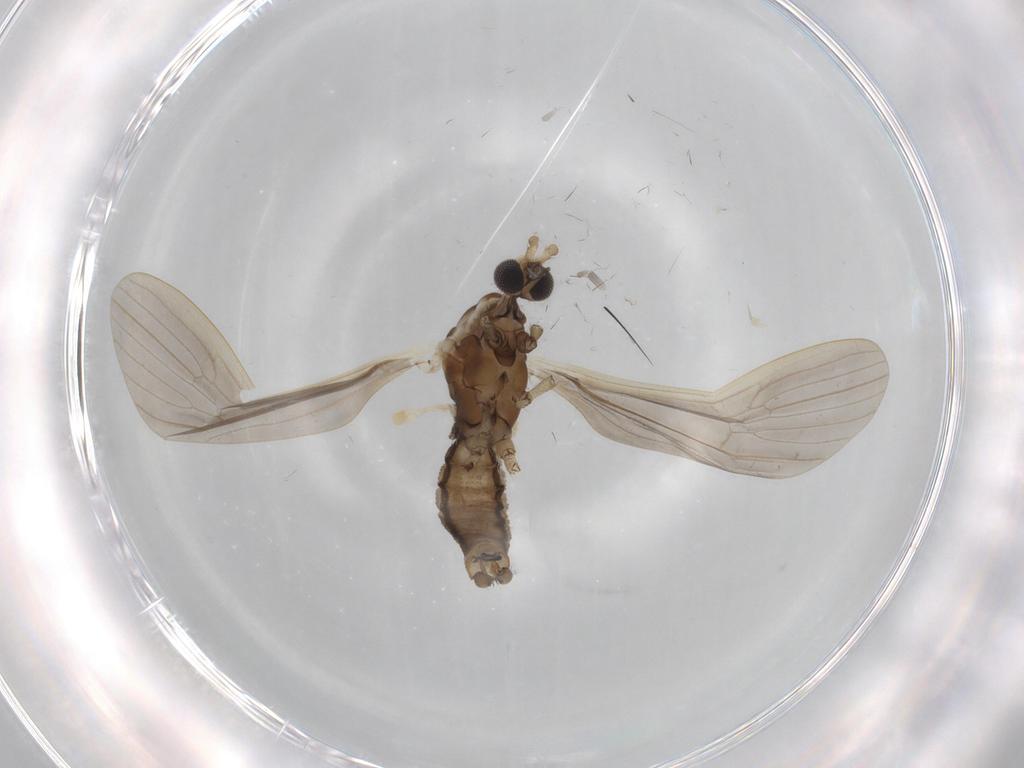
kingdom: Animalia
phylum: Arthropoda
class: Insecta
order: Diptera
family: Limoniidae
